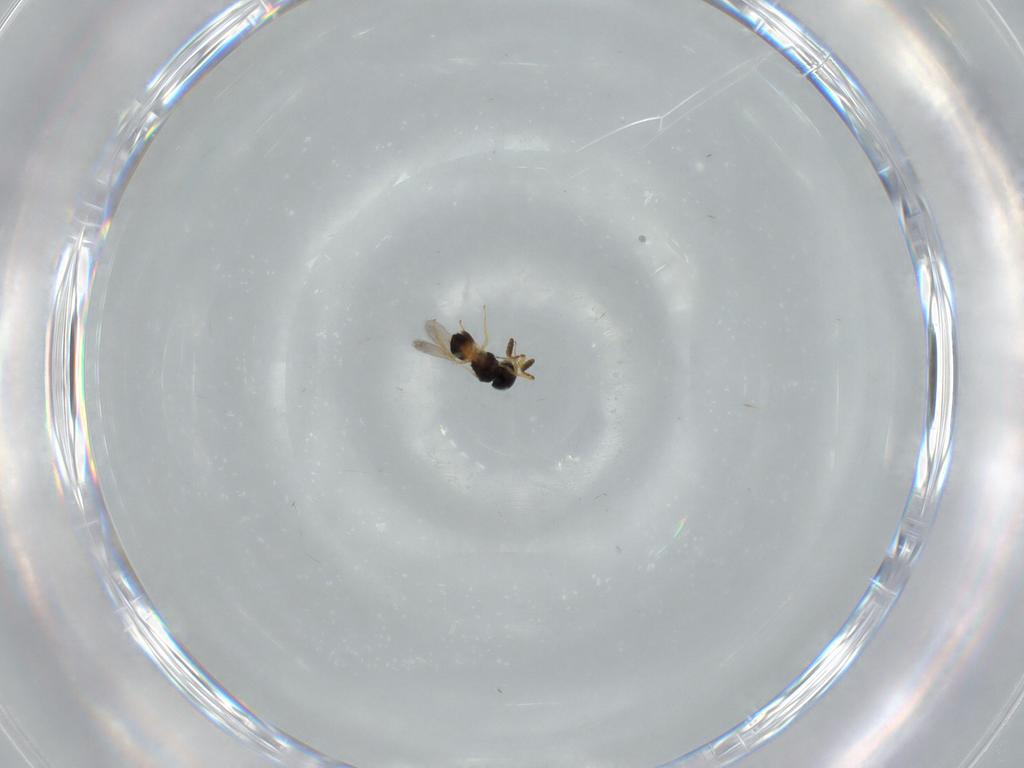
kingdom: Animalia
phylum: Arthropoda
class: Insecta
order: Hymenoptera
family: Scelionidae
